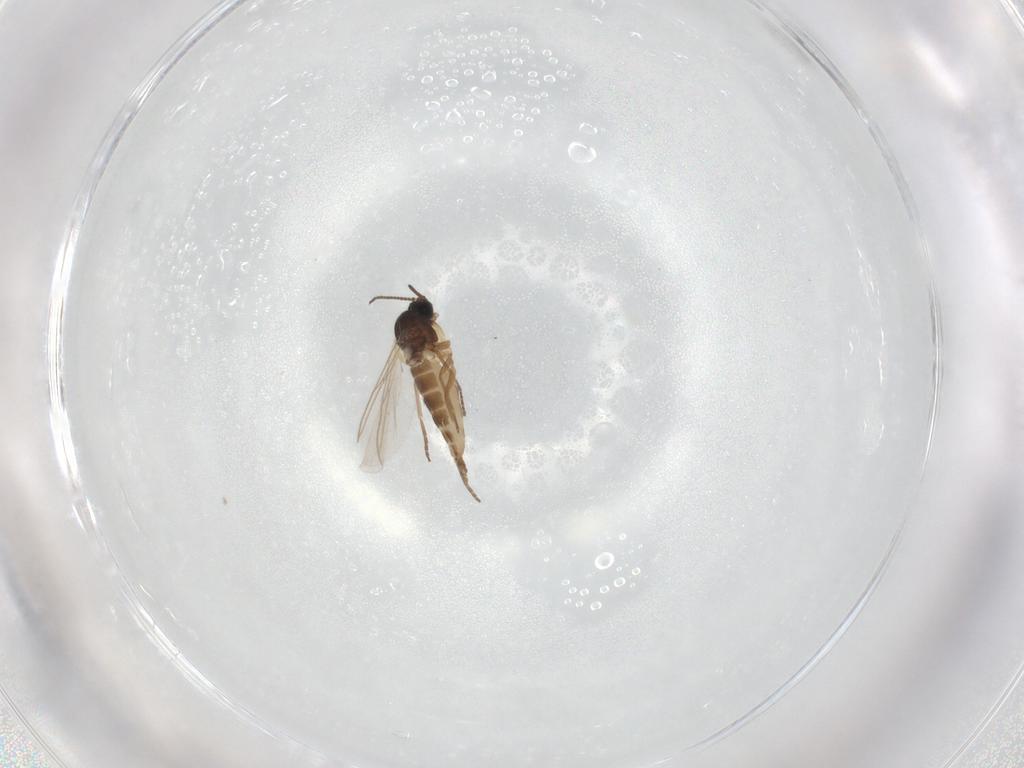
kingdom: Animalia
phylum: Arthropoda
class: Insecta
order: Diptera
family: Sciaridae
